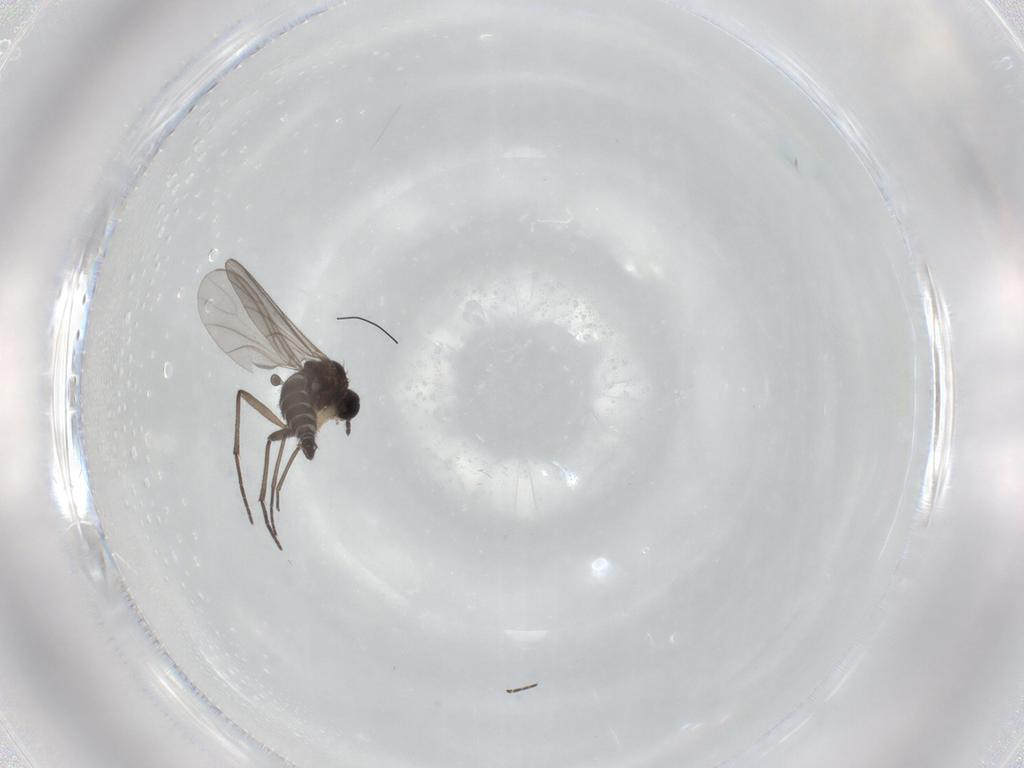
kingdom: Animalia
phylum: Arthropoda
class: Insecta
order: Diptera
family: Sciaridae
